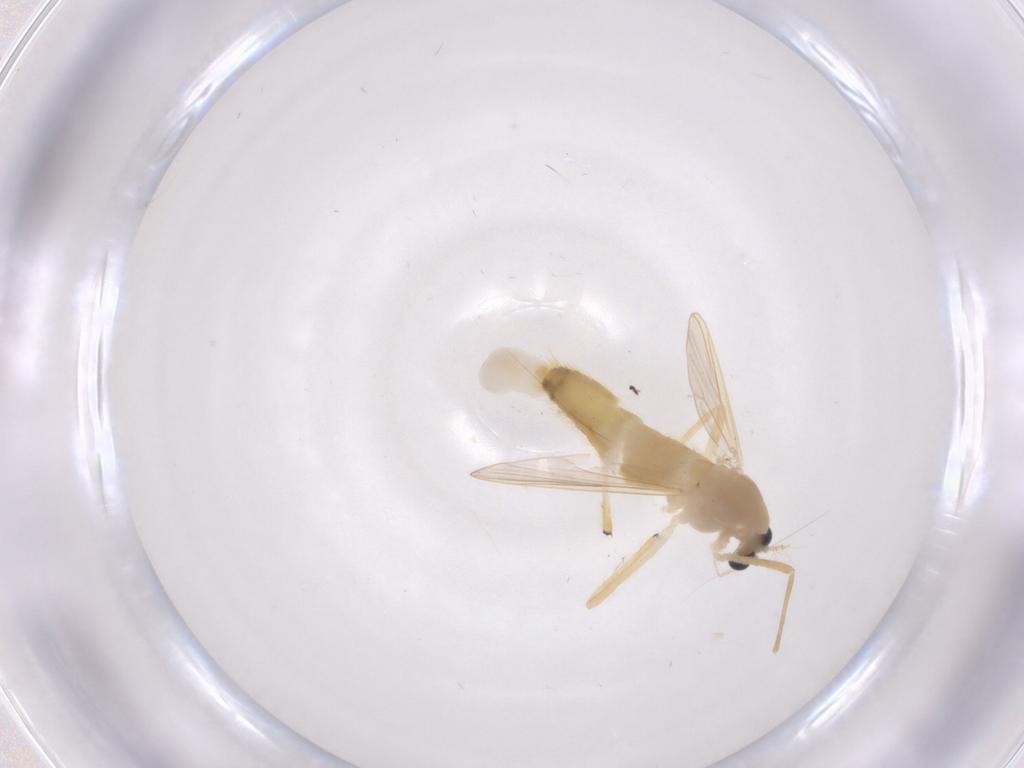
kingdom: Animalia
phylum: Arthropoda
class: Insecta
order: Diptera
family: Chironomidae
